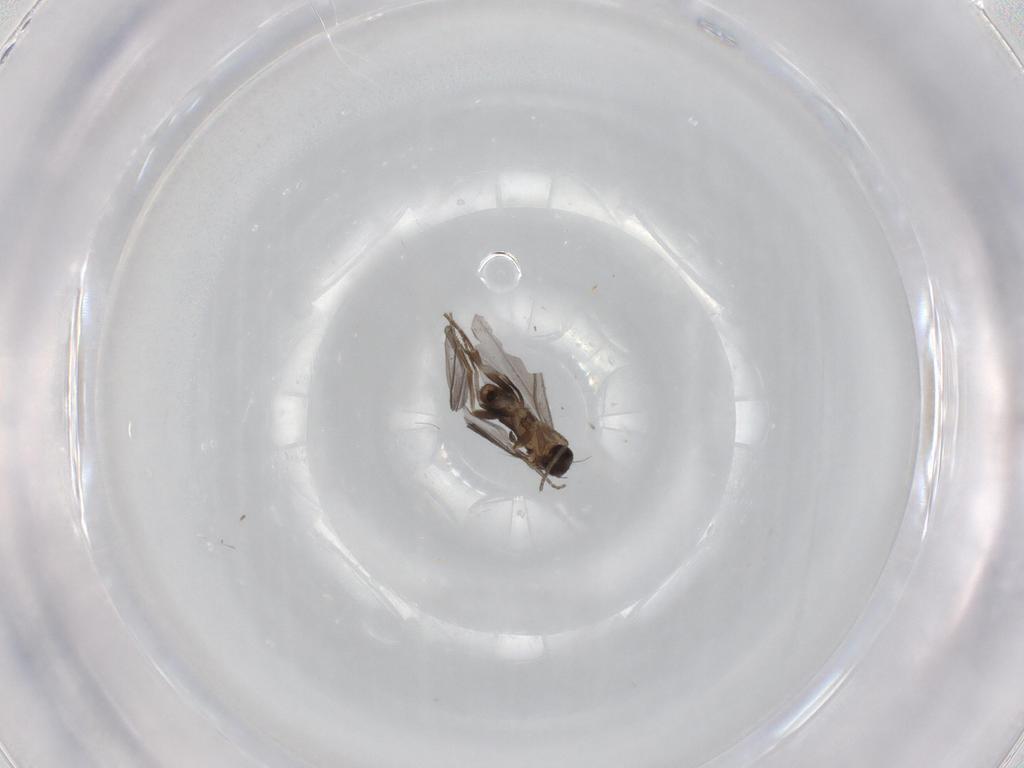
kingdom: Animalia
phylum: Arthropoda
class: Insecta
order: Diptera
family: Phoridae
